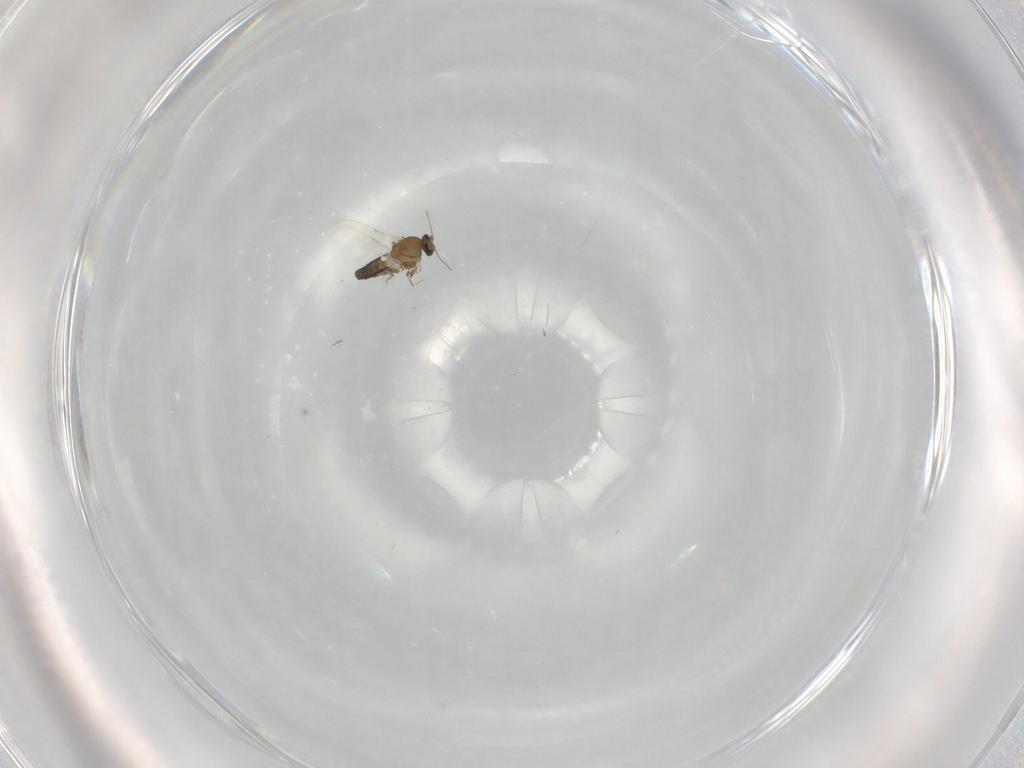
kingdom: Animalia
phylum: Arthropoda
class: Insecta
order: Diptera
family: Ceratopogonidae
